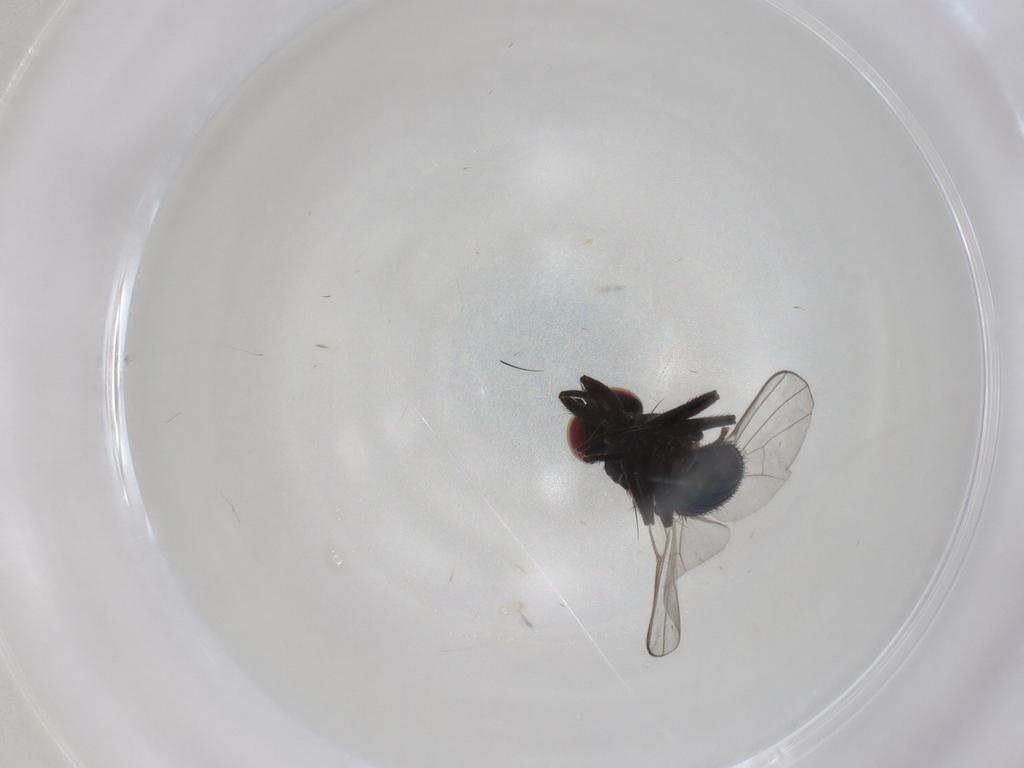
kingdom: Animalia
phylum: Arthropoda
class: Insecta
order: Diptera
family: Agromyzidae
